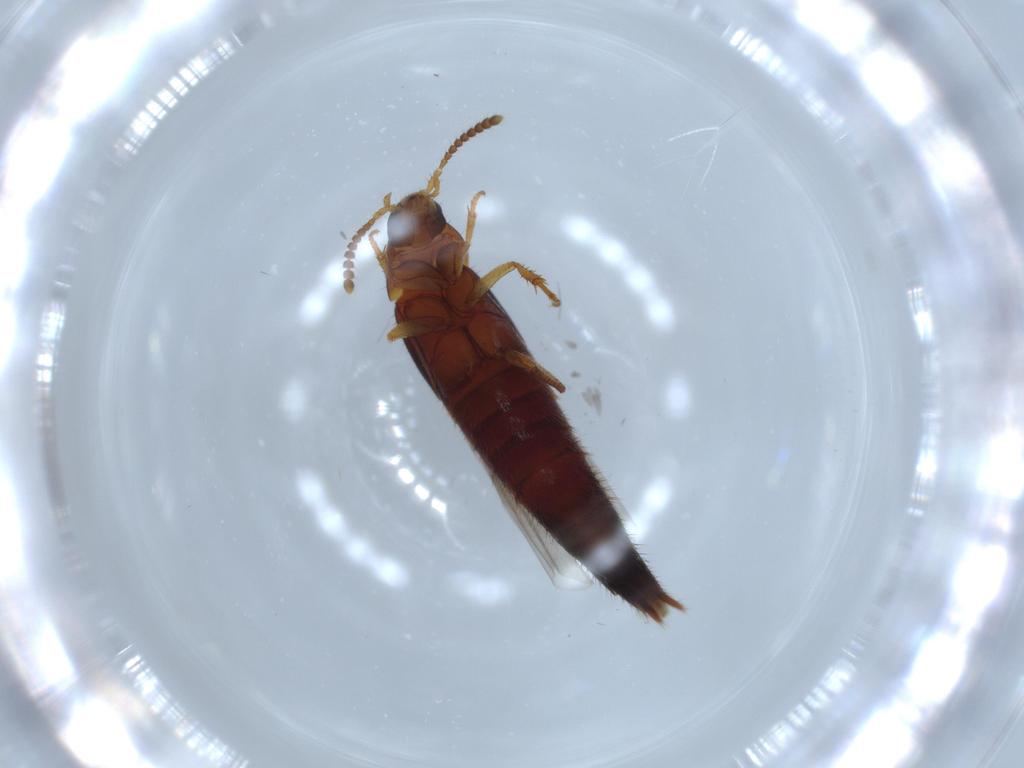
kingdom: Animalia
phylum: Arthropoda
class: Insecta
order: Coleoptera
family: Staphylinidae
